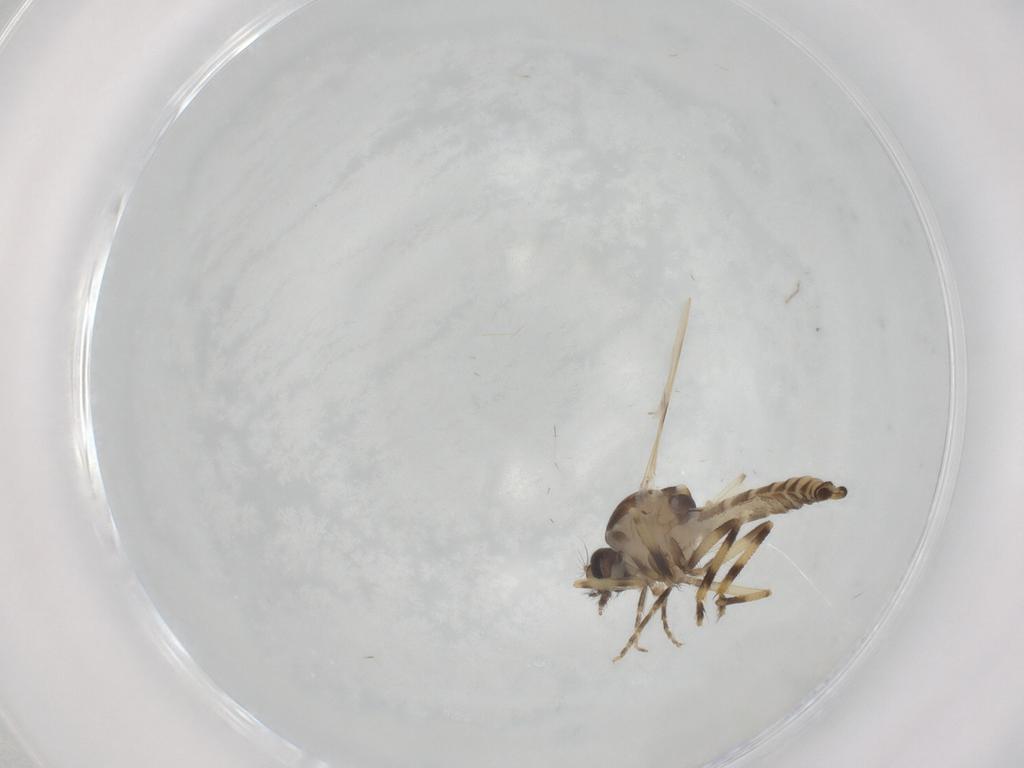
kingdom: Animalia
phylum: Arthropoda
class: Insecta
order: Diptera
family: Ceratopogonidae
